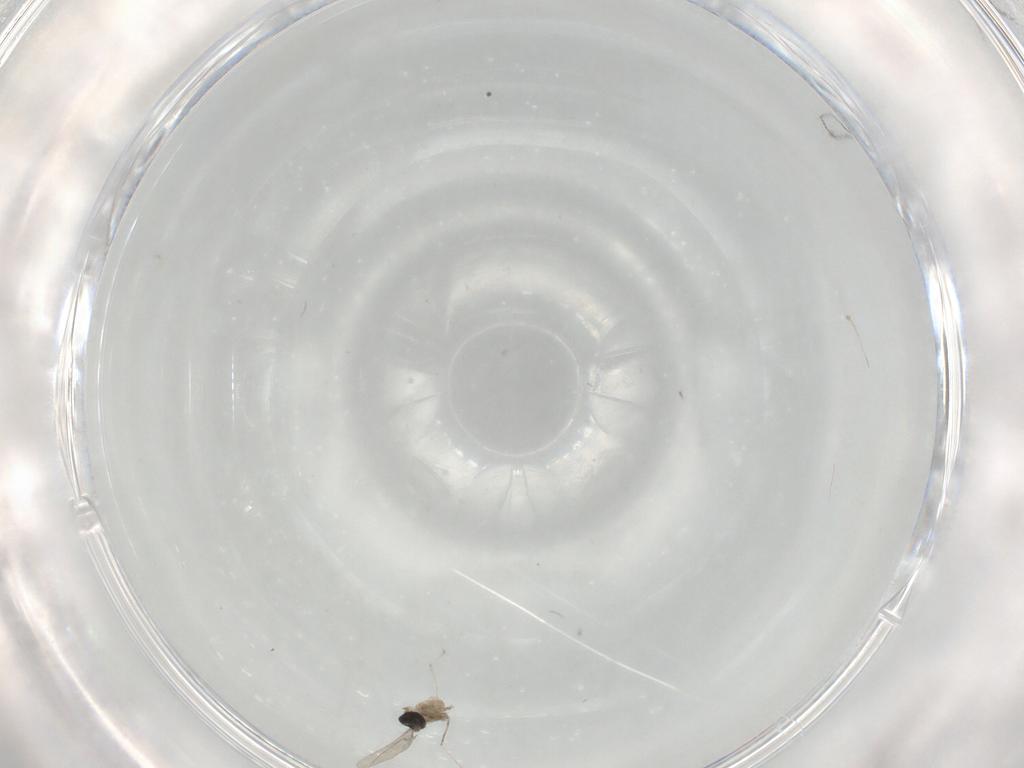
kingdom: Animalia
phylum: Arthropoda
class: Insecta
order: Diptera
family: Cecidomyiidae
